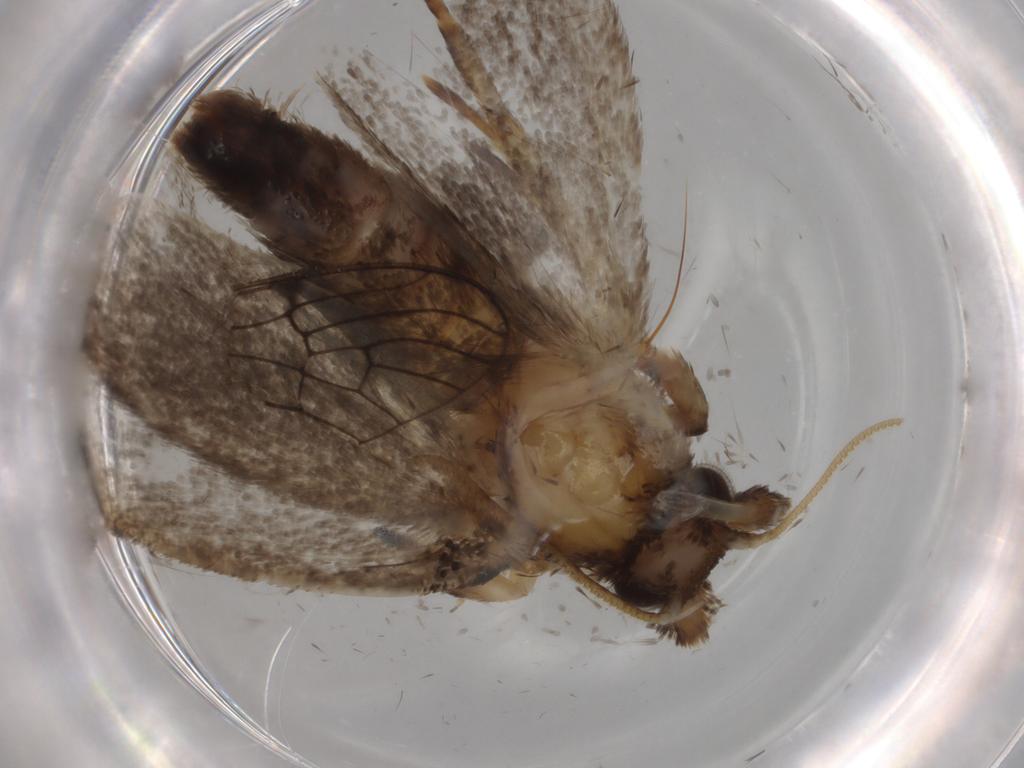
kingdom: Animalia
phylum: Arthropoda
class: Insecta
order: Lepidoptera
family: Tineidae
